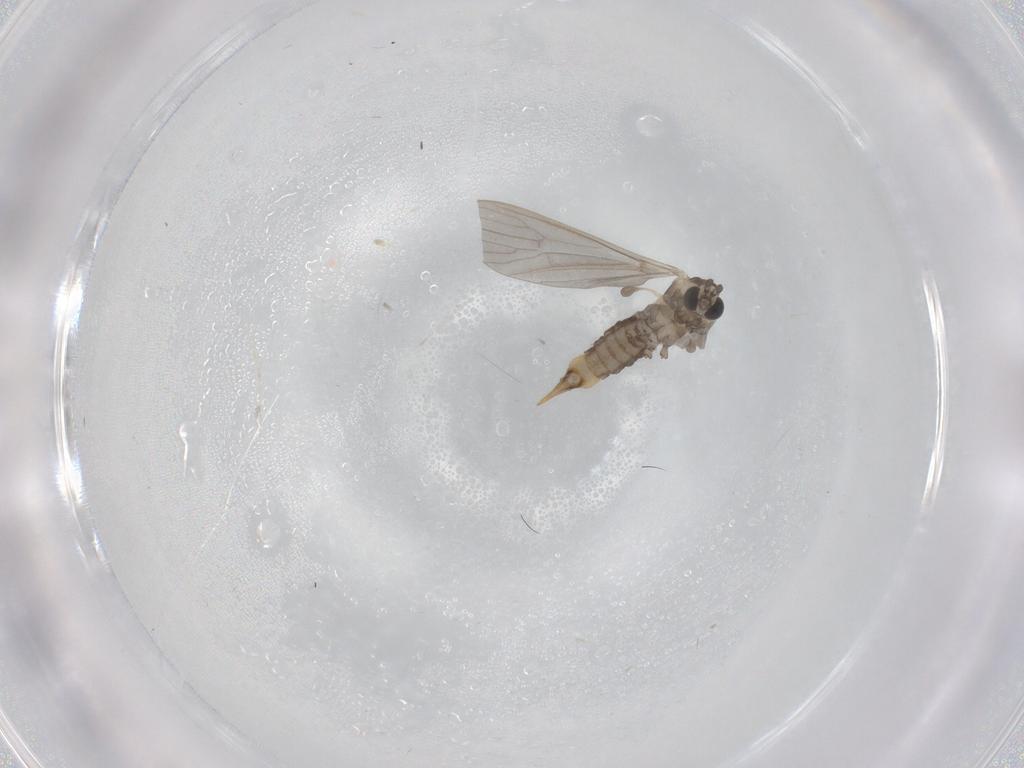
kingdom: Animalia
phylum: Arthropoda
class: Insecta
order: Diptera
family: Limoniidae
